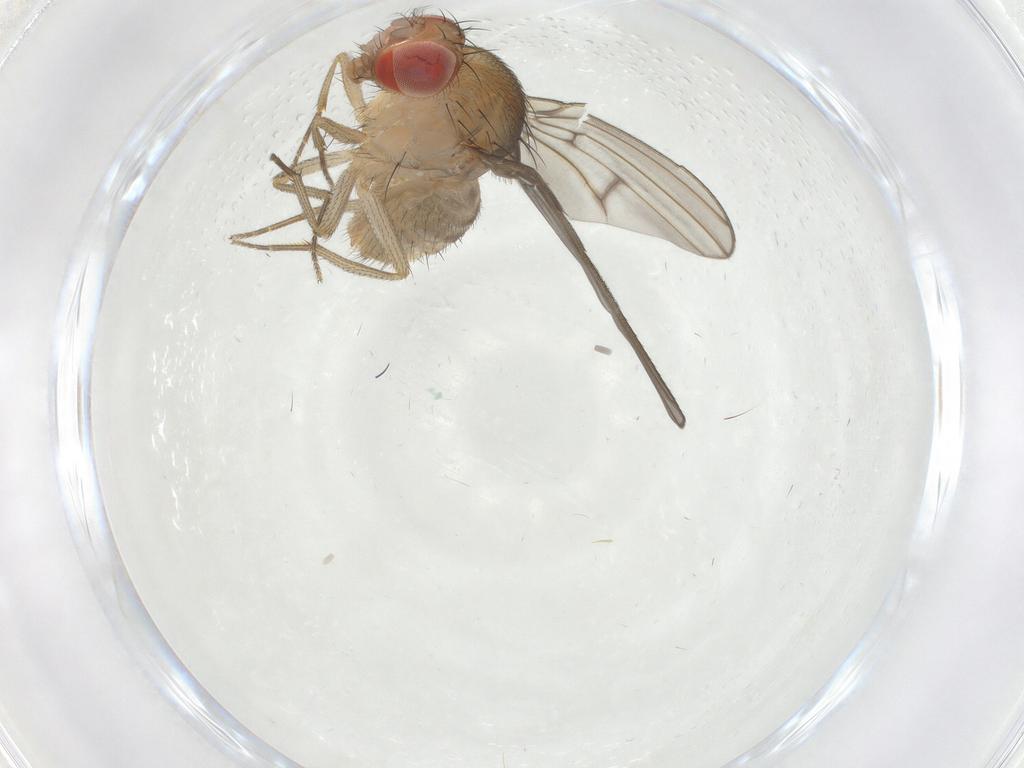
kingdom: Animalia
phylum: Arthropoda
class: Insecta
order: Diptera
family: Drosophilidae
